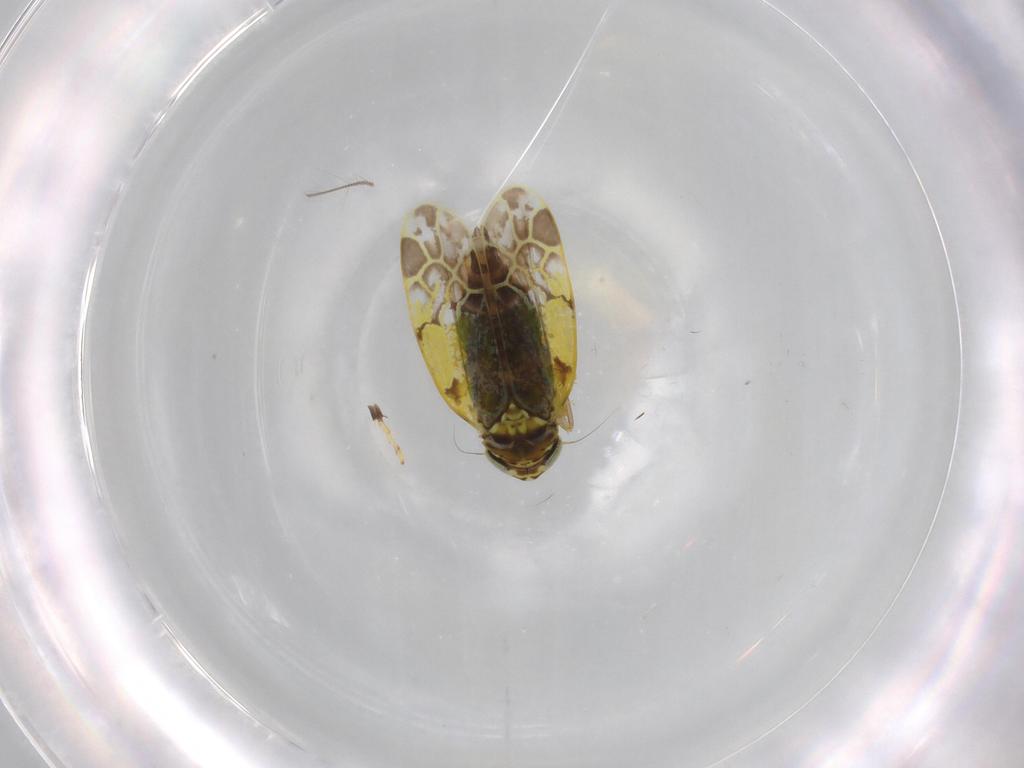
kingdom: Animalia
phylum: Arthropoda
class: Insecta
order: Hemiptera
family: Cicadellidae
